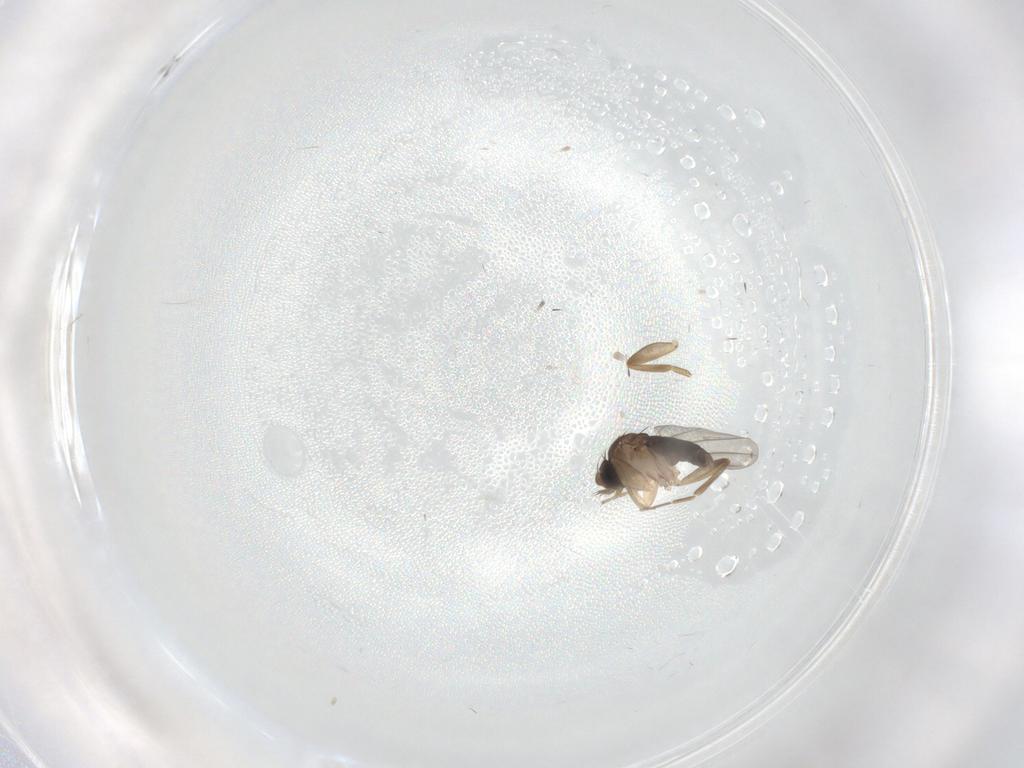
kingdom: Animalia
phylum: Arthropoda
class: Insecta
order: Diptera
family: Phoridae
